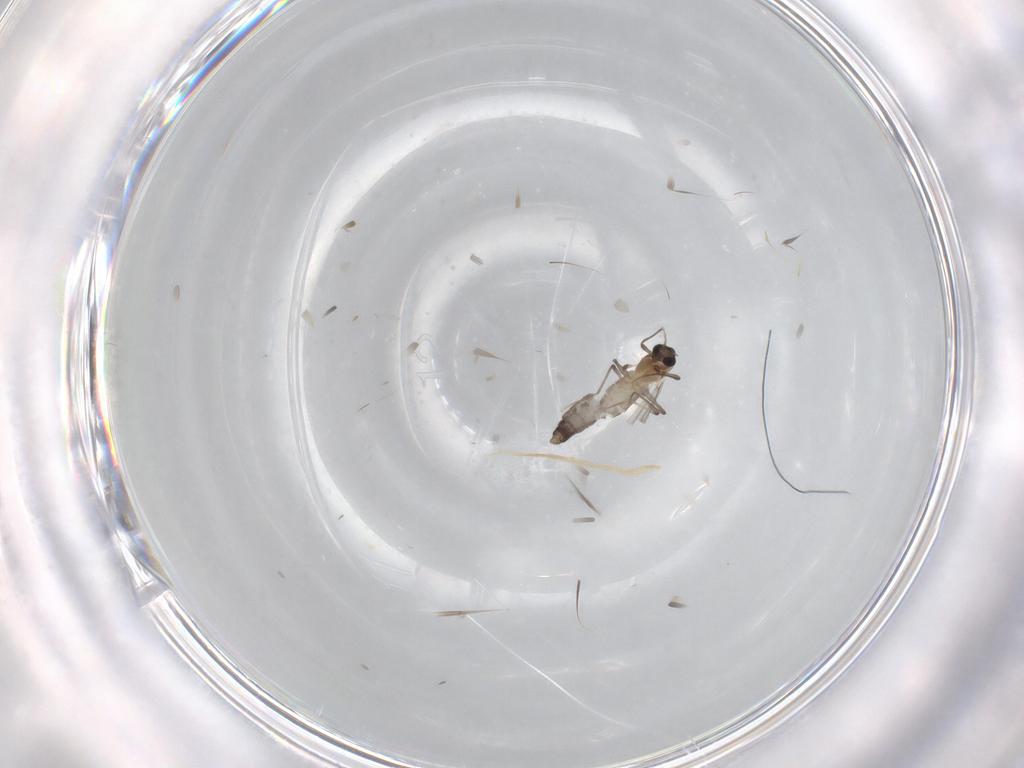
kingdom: Animalia
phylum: Arthropoda
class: Insecta
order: Diptera
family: Chironomidae
